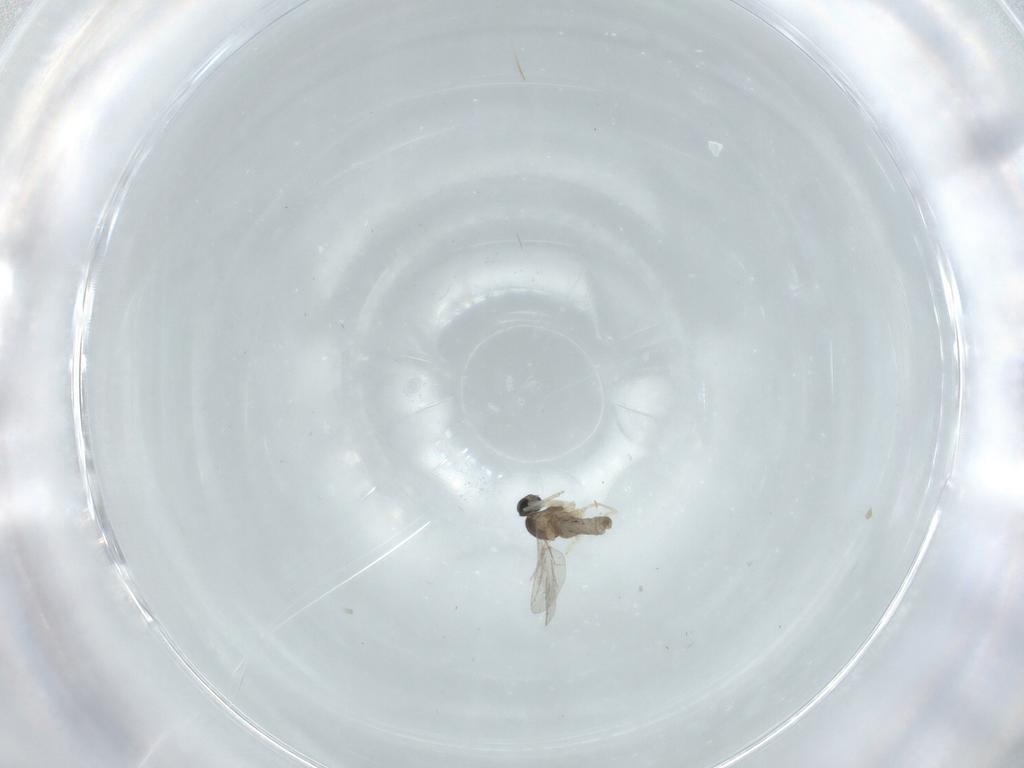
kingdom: Animalia
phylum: Arthropoda
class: Insecta
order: Diptera
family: Cecidomyiidae
